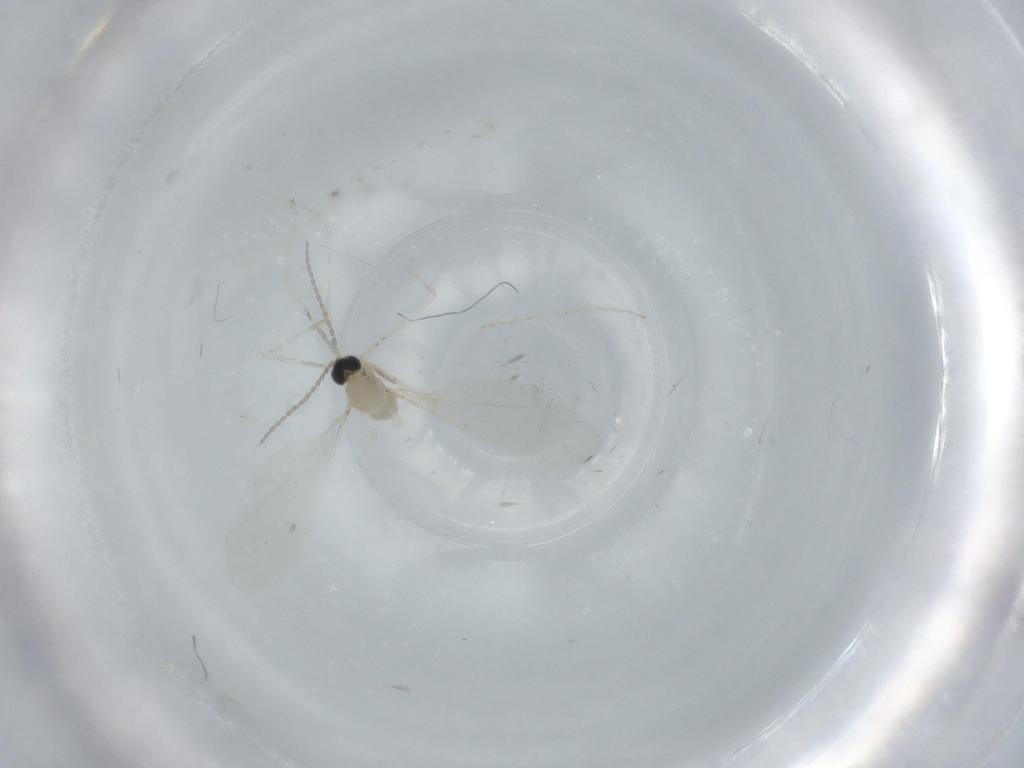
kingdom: Animalia
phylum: Arthropoda
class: Insecta
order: Diptera
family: Cecidomyiidae
